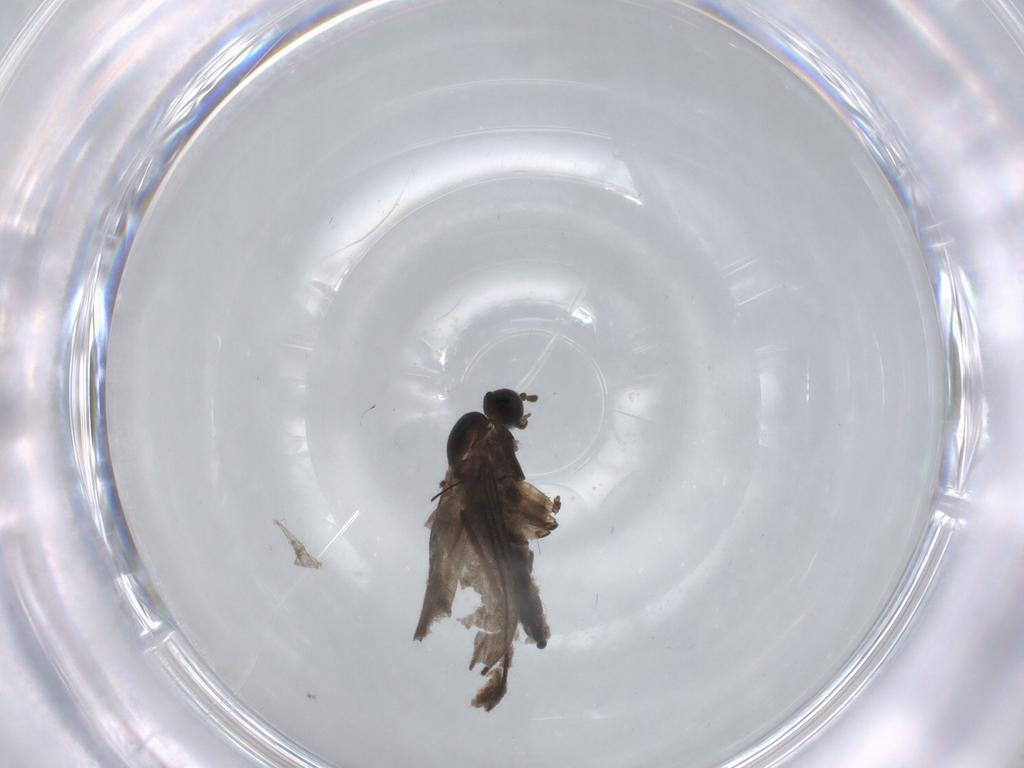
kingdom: Animalia
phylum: Arthropoda
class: Insecta
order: Diptera
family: Sciaridae
